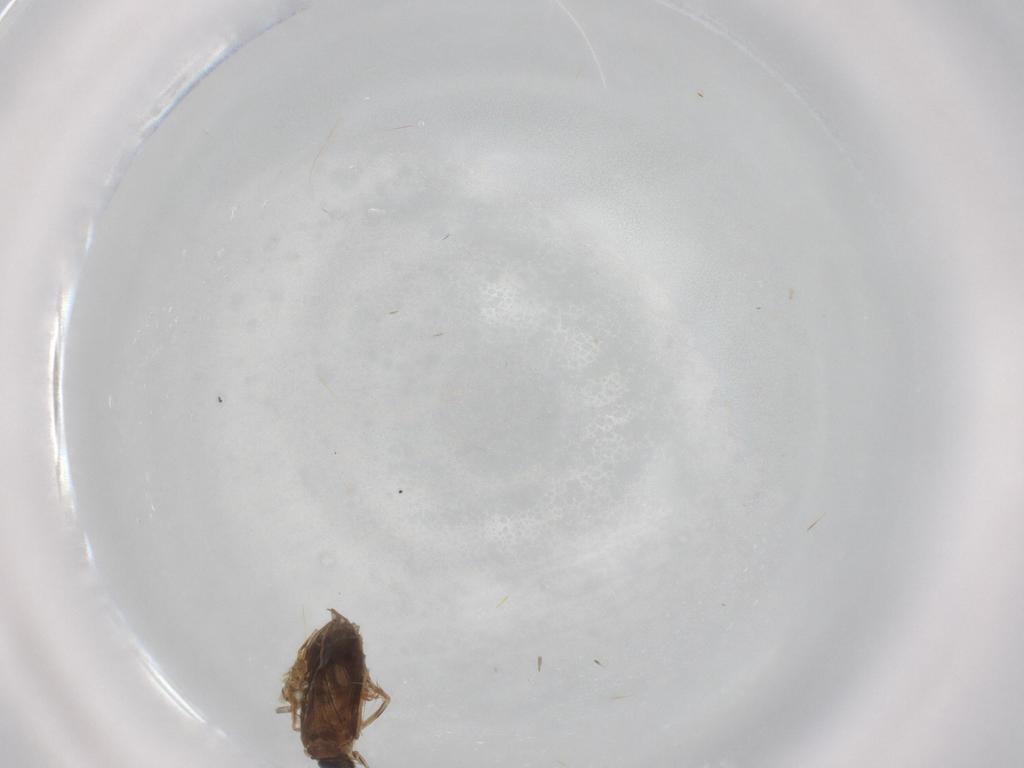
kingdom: Animalia
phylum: Arthropoda
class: Insecta
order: Trichoptera
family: Hydroptilidae
